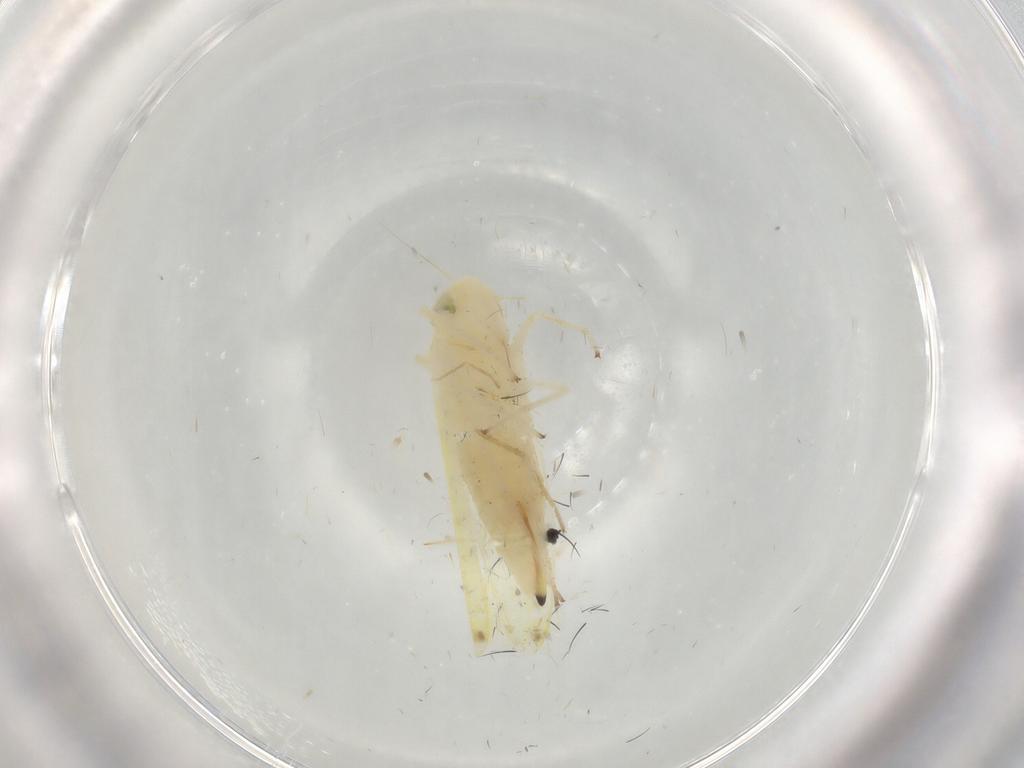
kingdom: Animalia
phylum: Arthropoda
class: Insecta
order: Hemiptera
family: Cicadellidae
